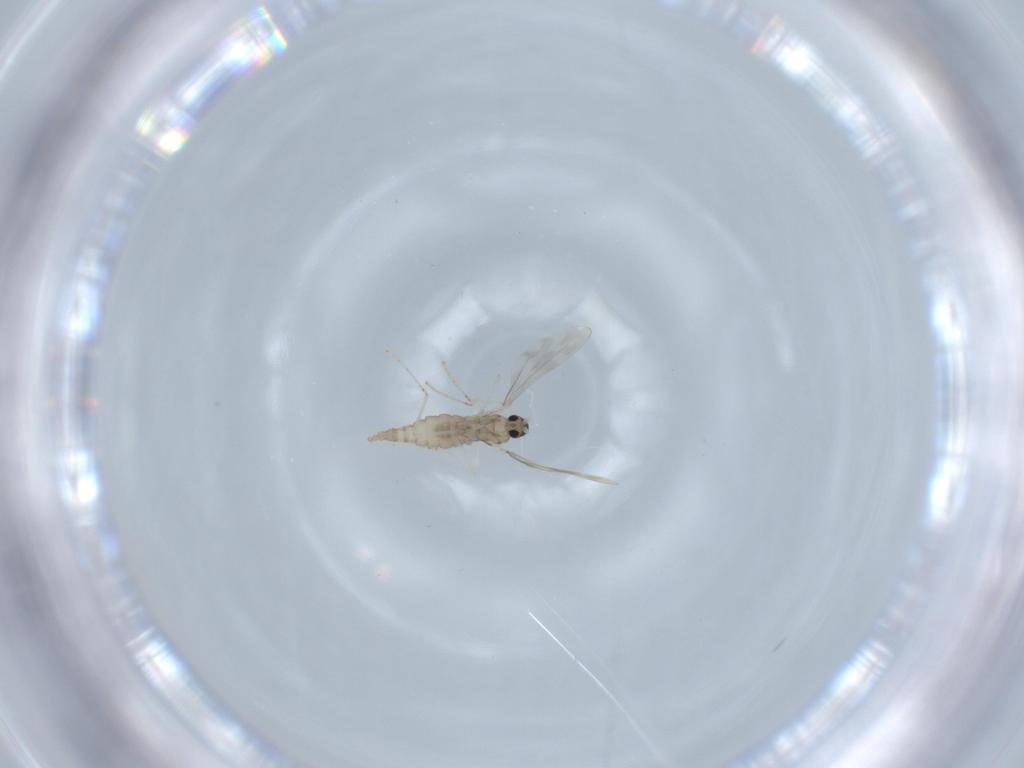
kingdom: Animalia
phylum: Arthropoda
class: Insecta
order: Diptera
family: Cecidomyiidae
